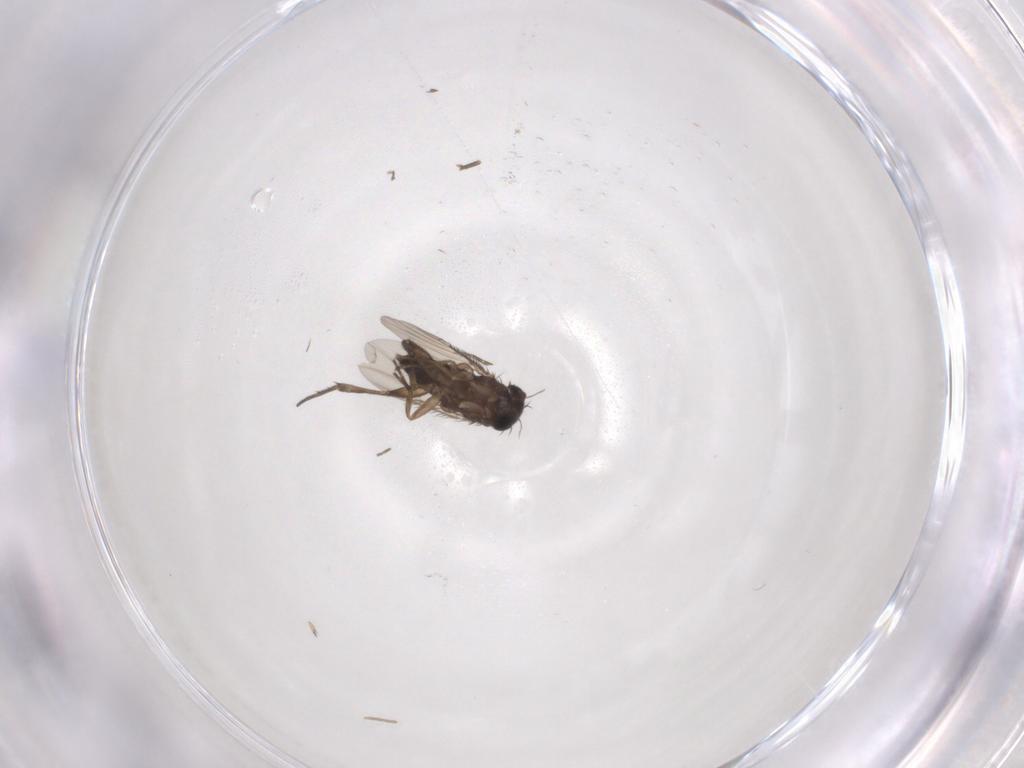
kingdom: Animalia
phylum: Arthropoda
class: Insecta
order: Diptera
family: Phoridae
